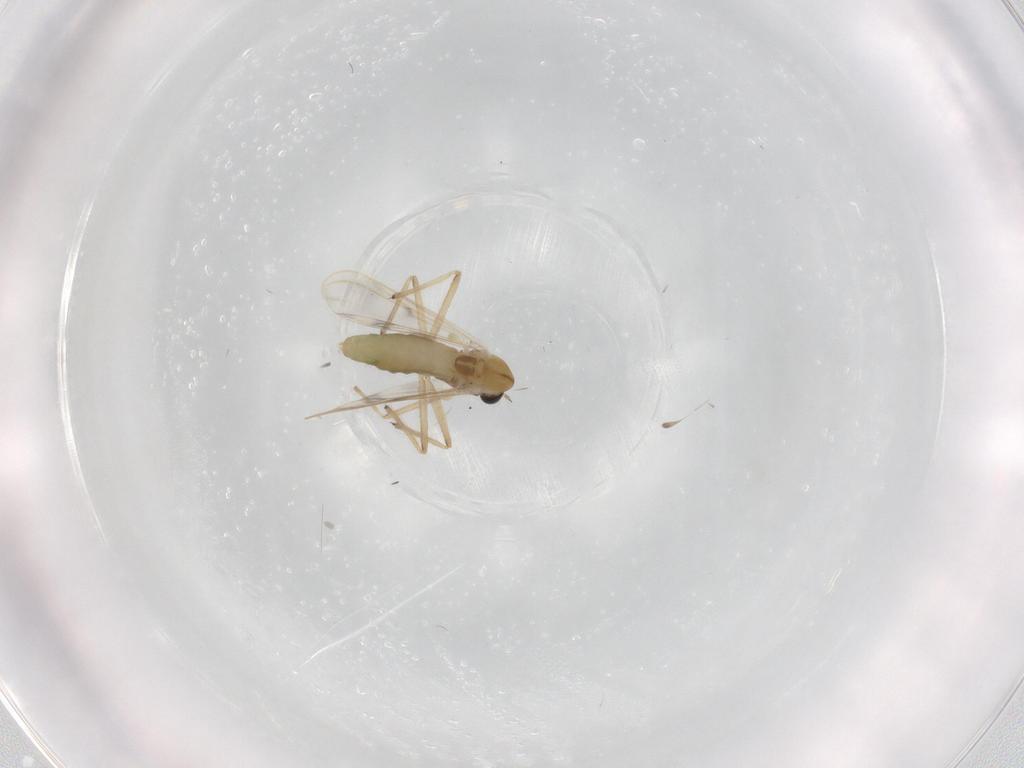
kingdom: Animalia
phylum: Arthropoda
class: Insecta
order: Diptera
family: Chironomidae
